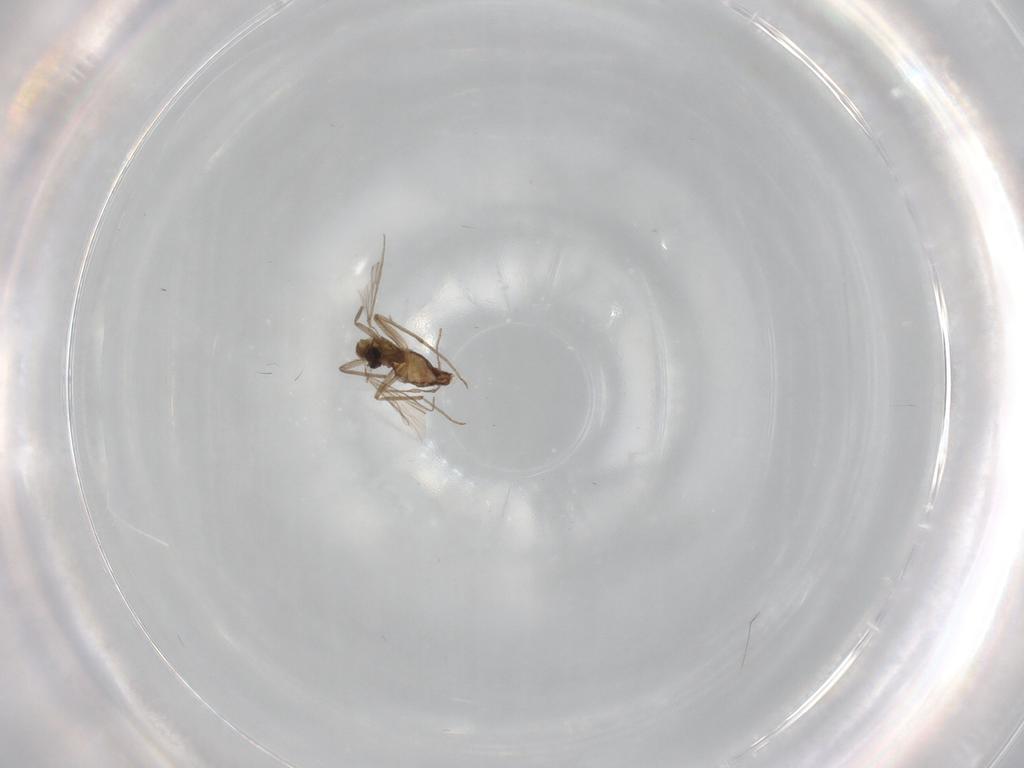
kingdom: Animalia
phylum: Arthropoda
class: Insecta
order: Diptera
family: Chironomidae
